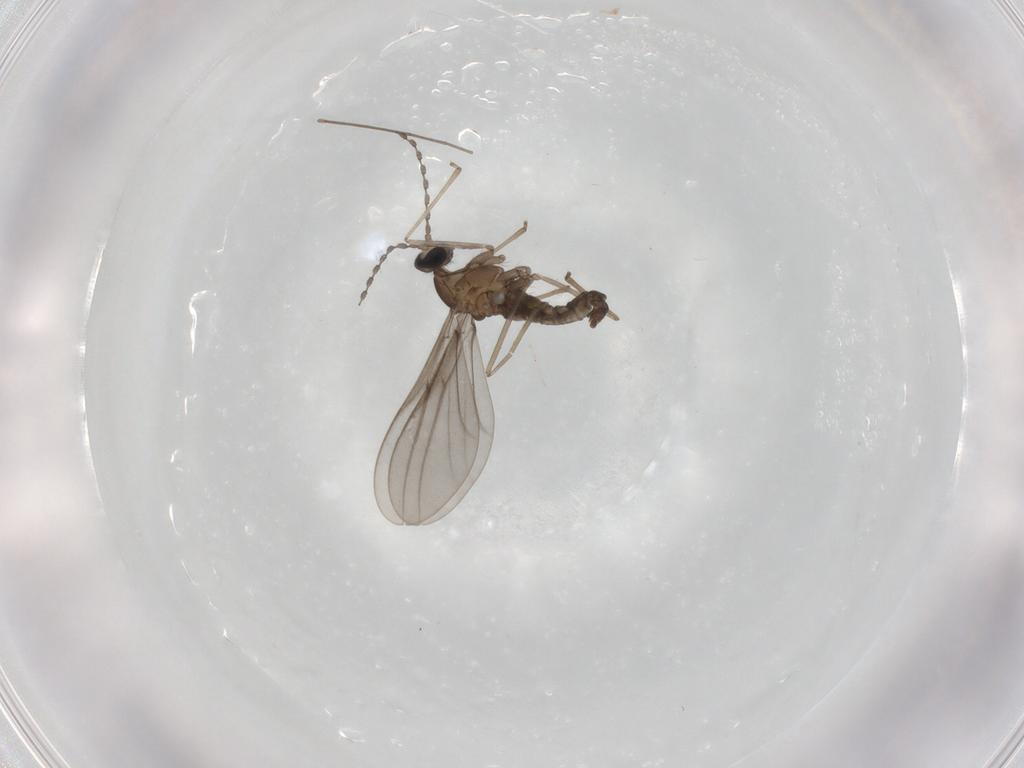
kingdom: Animalia
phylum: Arthropoda
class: Insecta
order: Diptera
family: Cecidomyiidae
